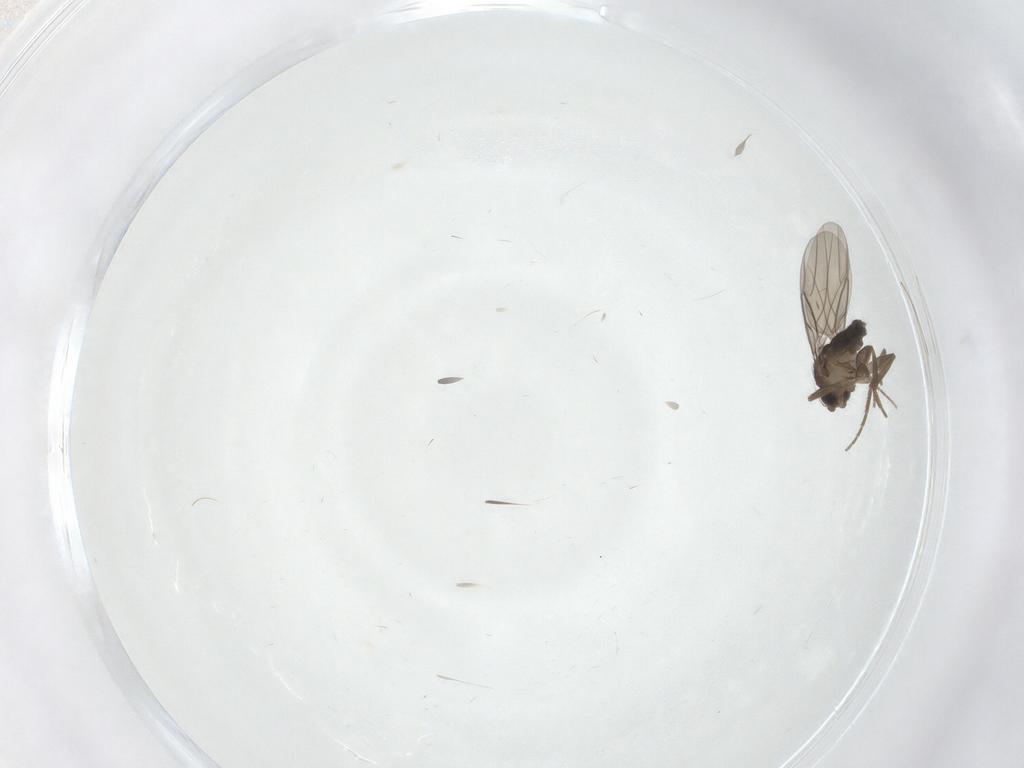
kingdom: Animalia
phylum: Arthropoda
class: Insecta
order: Diptera
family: Phoridae
